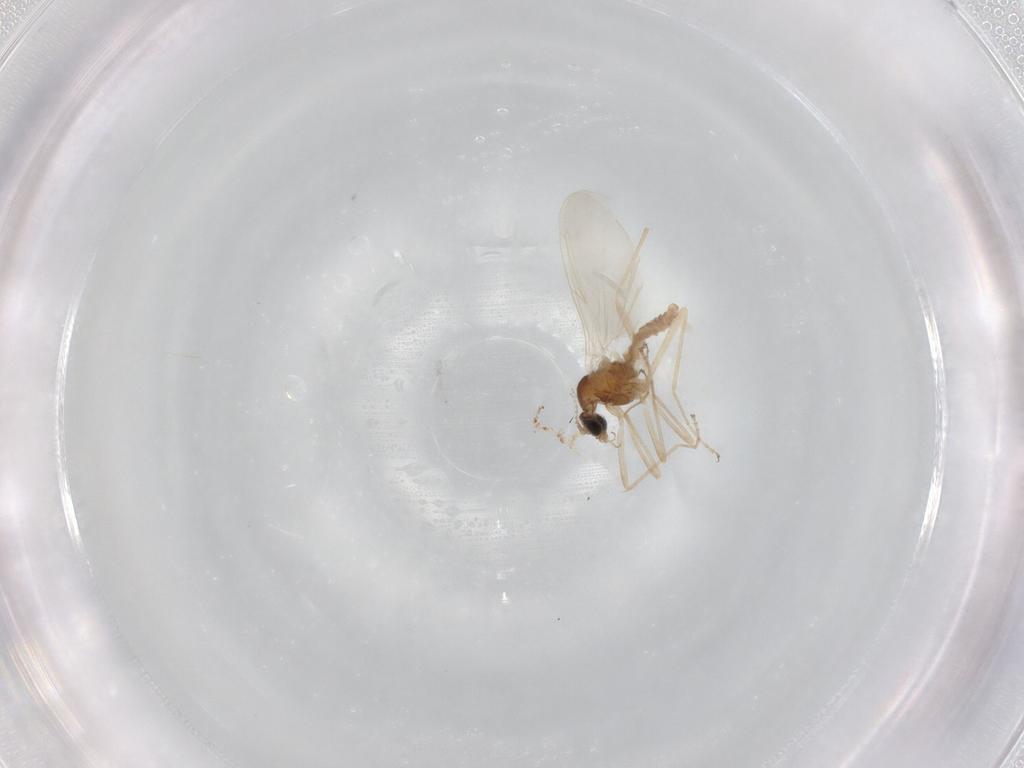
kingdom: Animalia
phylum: Arthropoda
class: Insecta
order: Diptera
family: Cecidomyiidae
